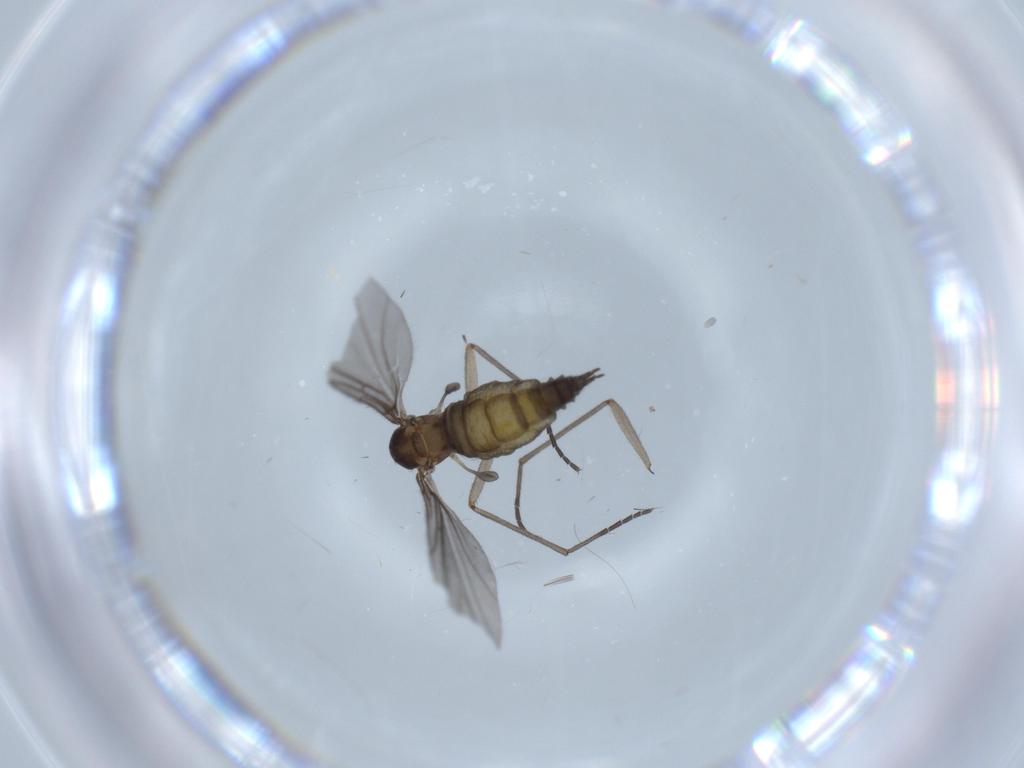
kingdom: Animalia
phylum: Arthropoda
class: Insecta
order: Diptera
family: Sciaridae
